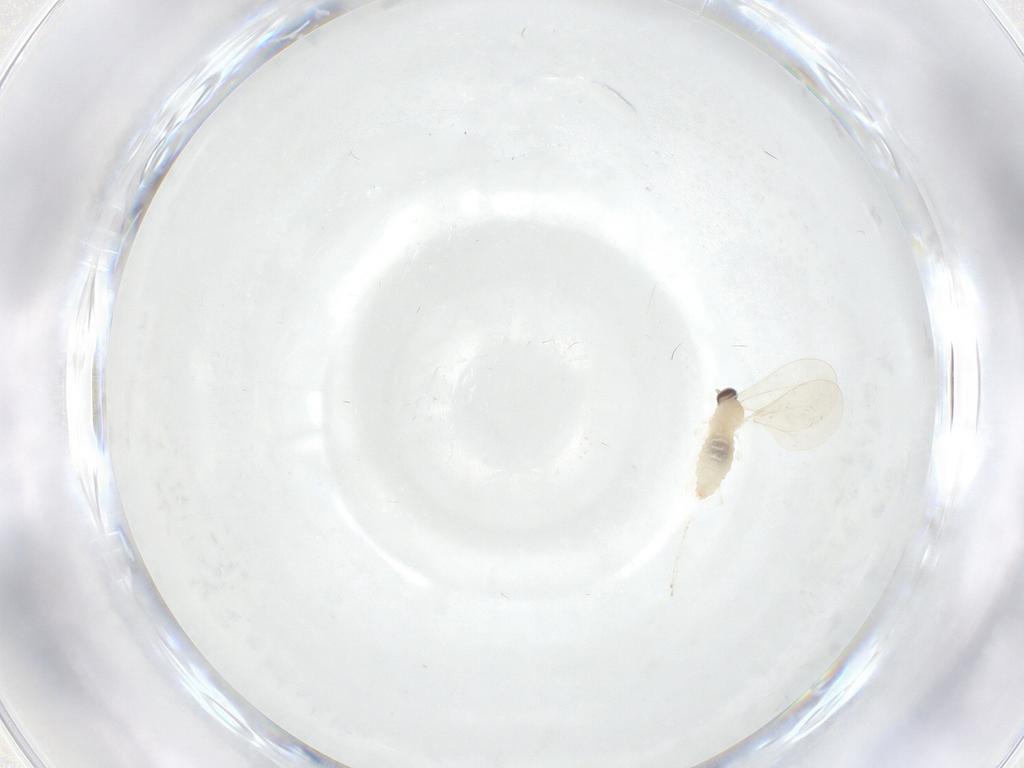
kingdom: Animalia
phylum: Arthropoda
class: Insecta
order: Diptera
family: Cecidomyiidae
